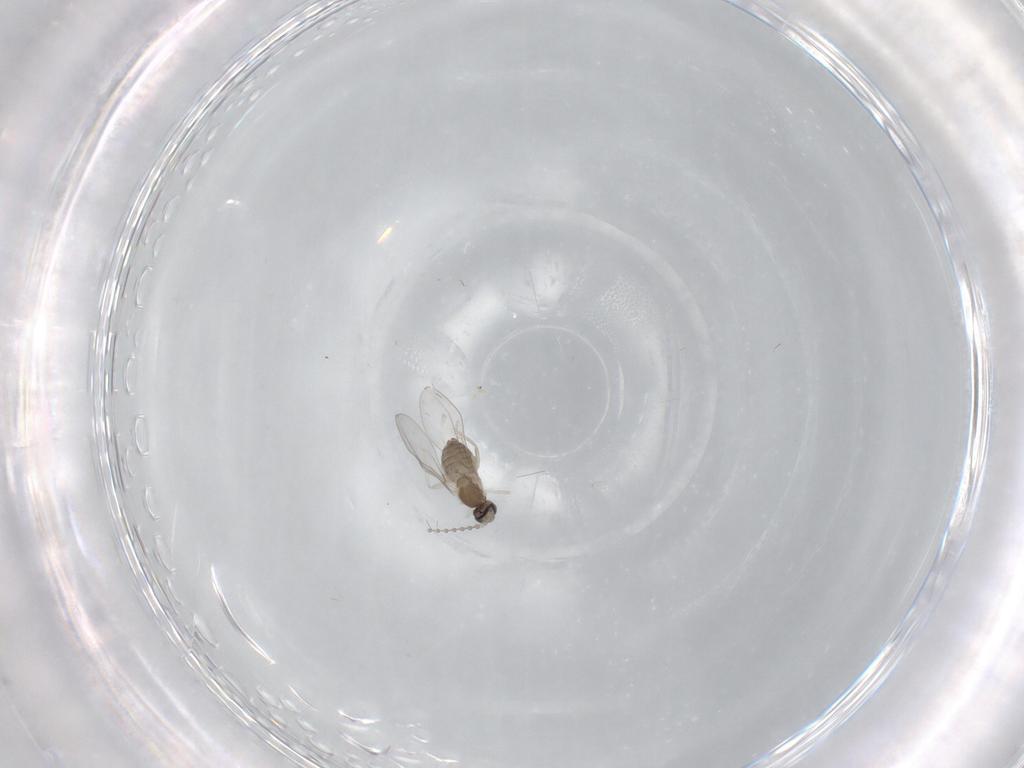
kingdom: Animalia
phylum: Arthropoda
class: Insecta
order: Diptera
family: Cecidomyiidae
